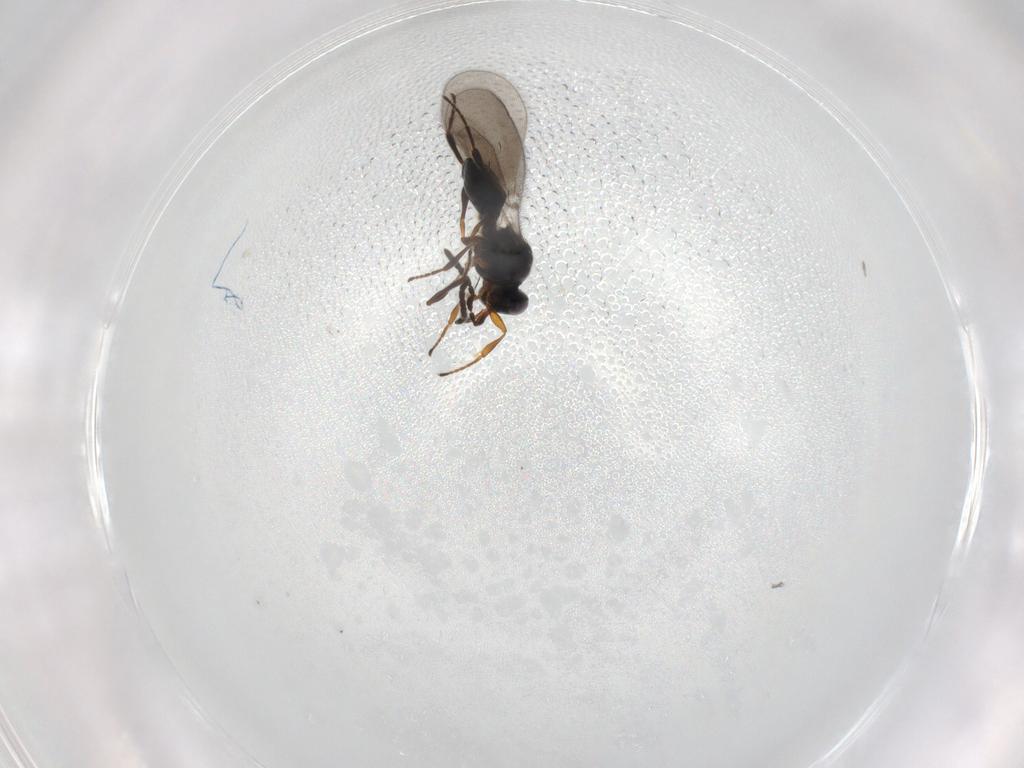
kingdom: Animalia
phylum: Arthropoda
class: Insecta
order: Hymenoptera
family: Platygastridae
